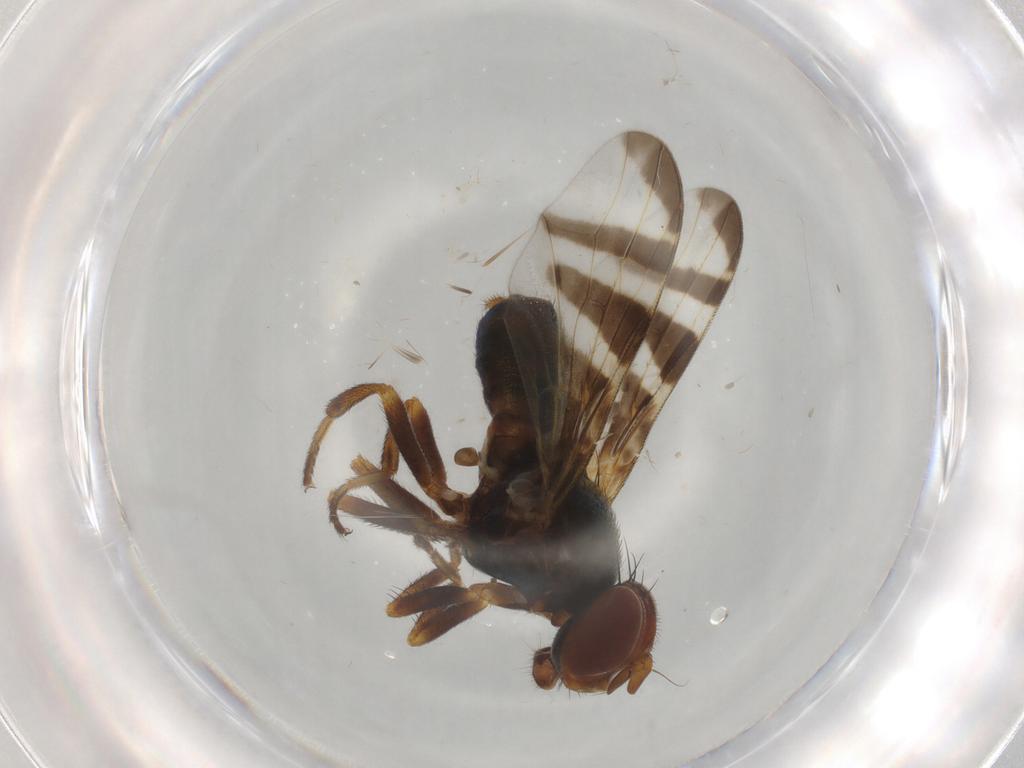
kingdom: Animalia
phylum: Arthropoda
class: Insecta
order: Diptera
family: Platystomatidae
